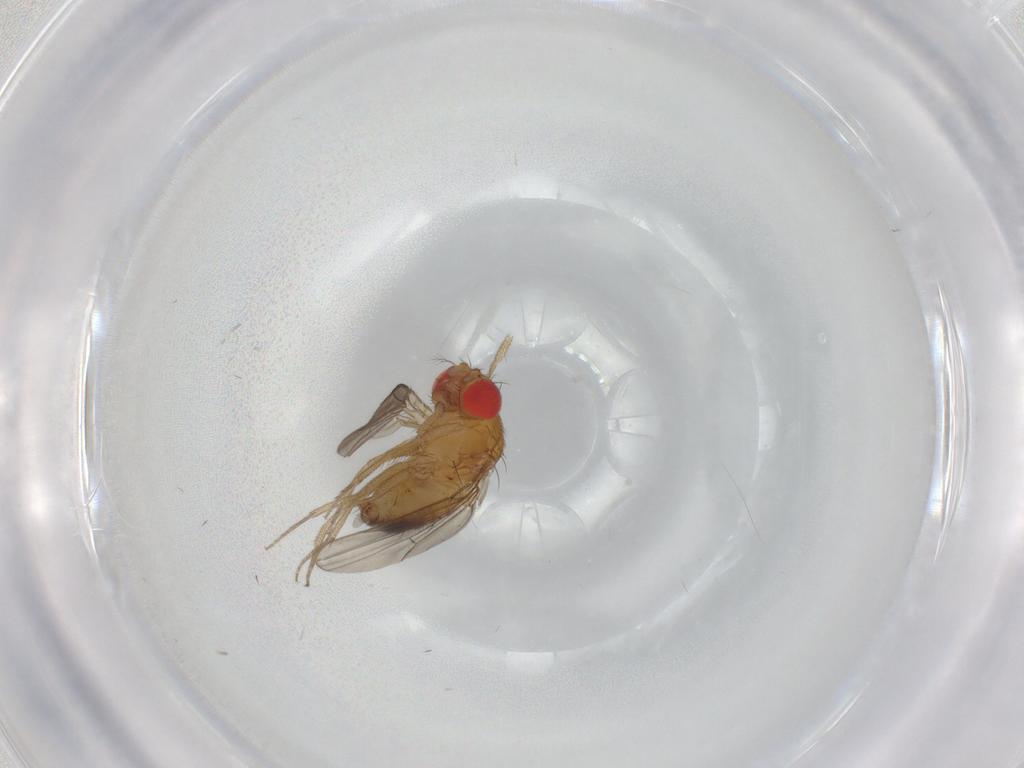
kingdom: Animalia
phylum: Arthropoda
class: Insecta
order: Diptera
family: Drosophilidae
